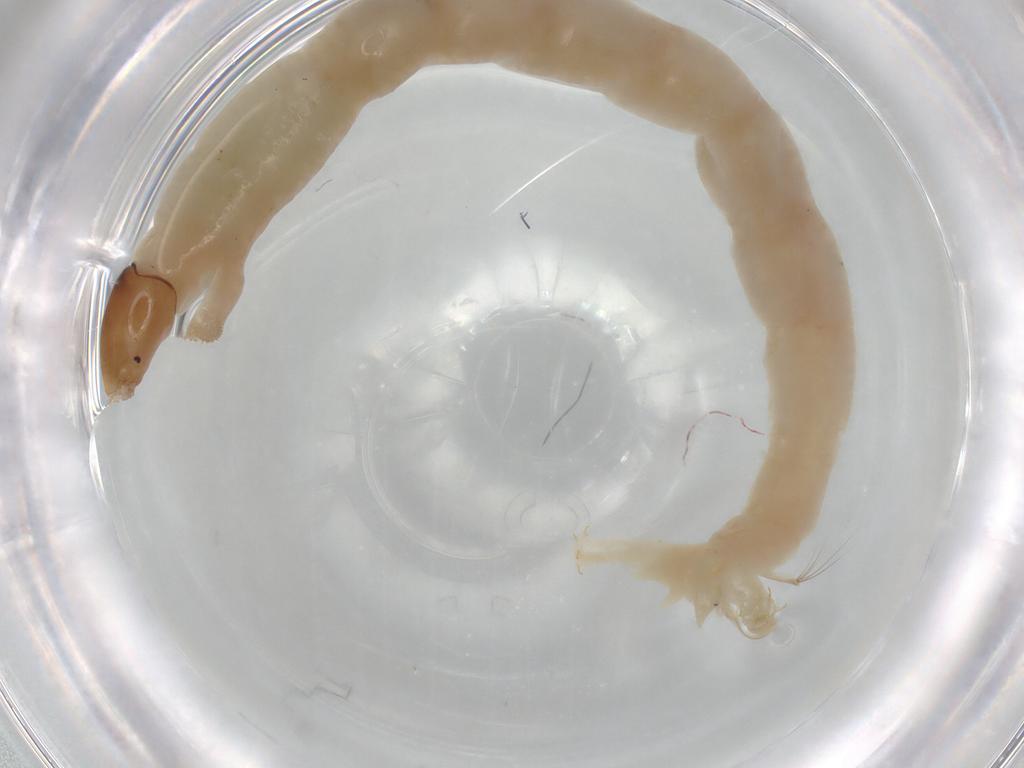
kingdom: Animalia
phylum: Arthropoda
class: Insecta
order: Diptera
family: Chironomidae
